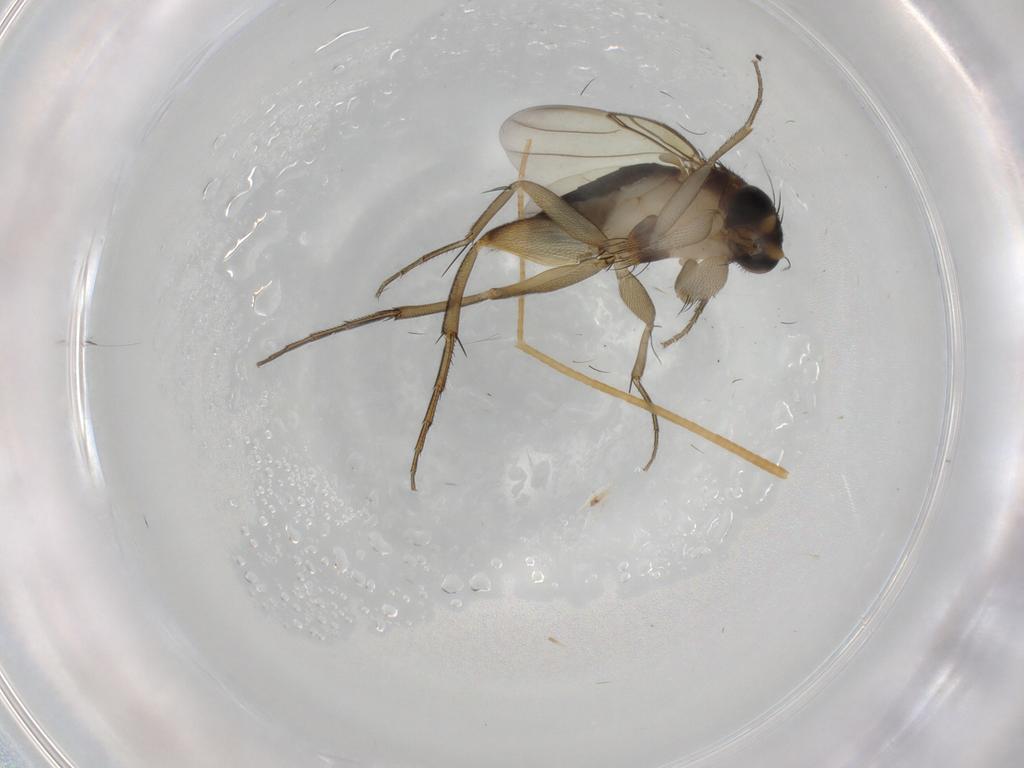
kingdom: Animalia
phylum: Arthropoda
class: Insecta
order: Diptera
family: Phoridae
